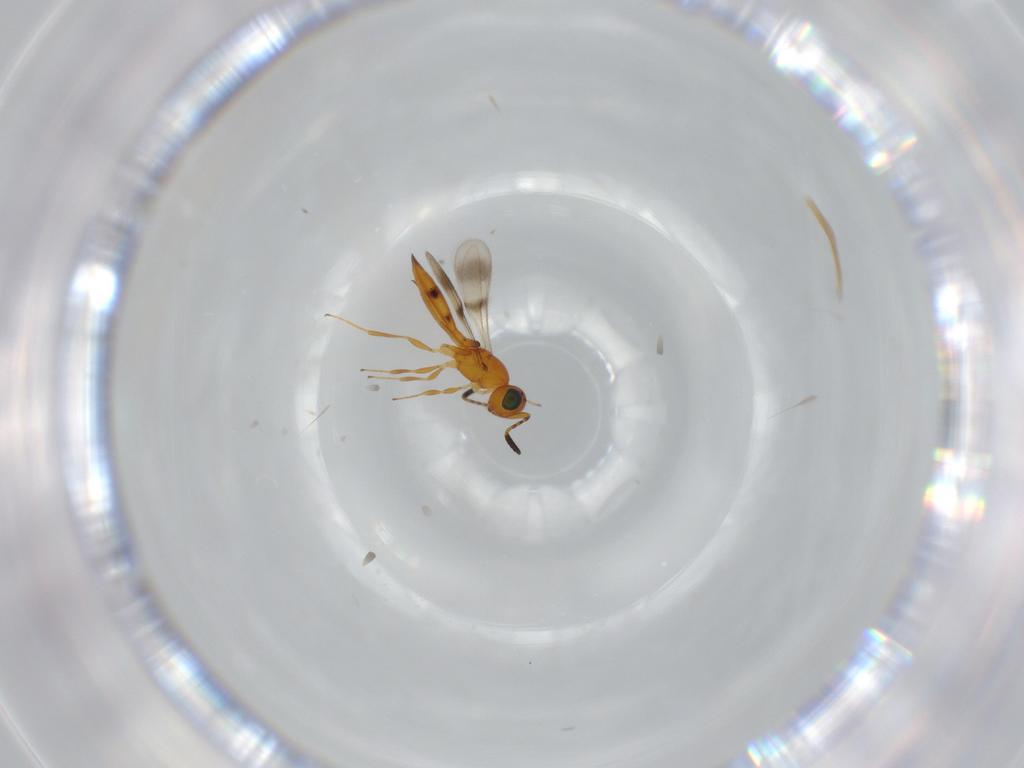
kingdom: Animalia
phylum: Arthropoda
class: Insecta
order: Hymenoptera
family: Scelionidae
